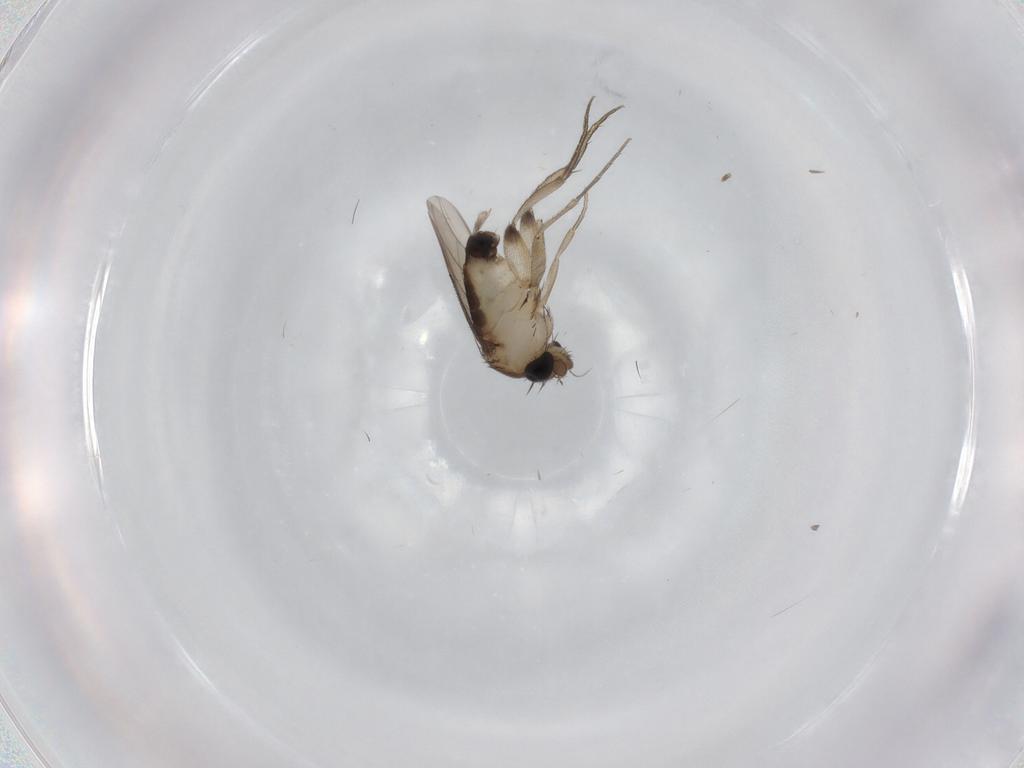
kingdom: Animalia
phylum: Arthropoda
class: Insecta
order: Diptera
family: Phoridae
